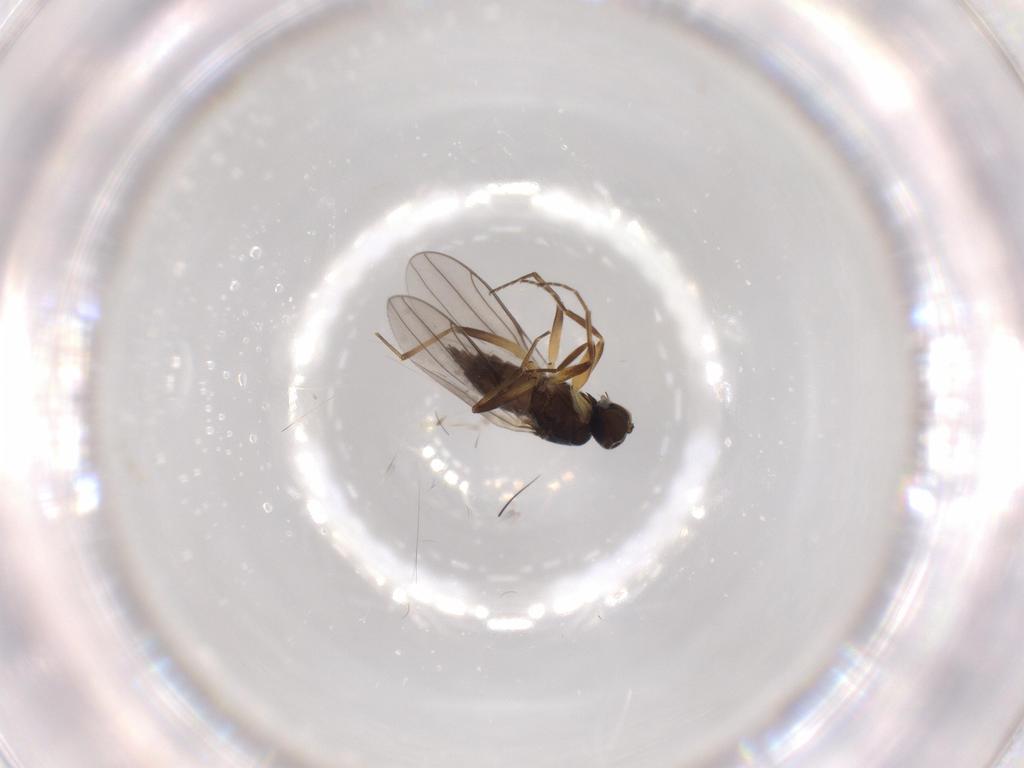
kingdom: Animalia
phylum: Arthropoda
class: Insecta
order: Diptera
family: Hybotidae
